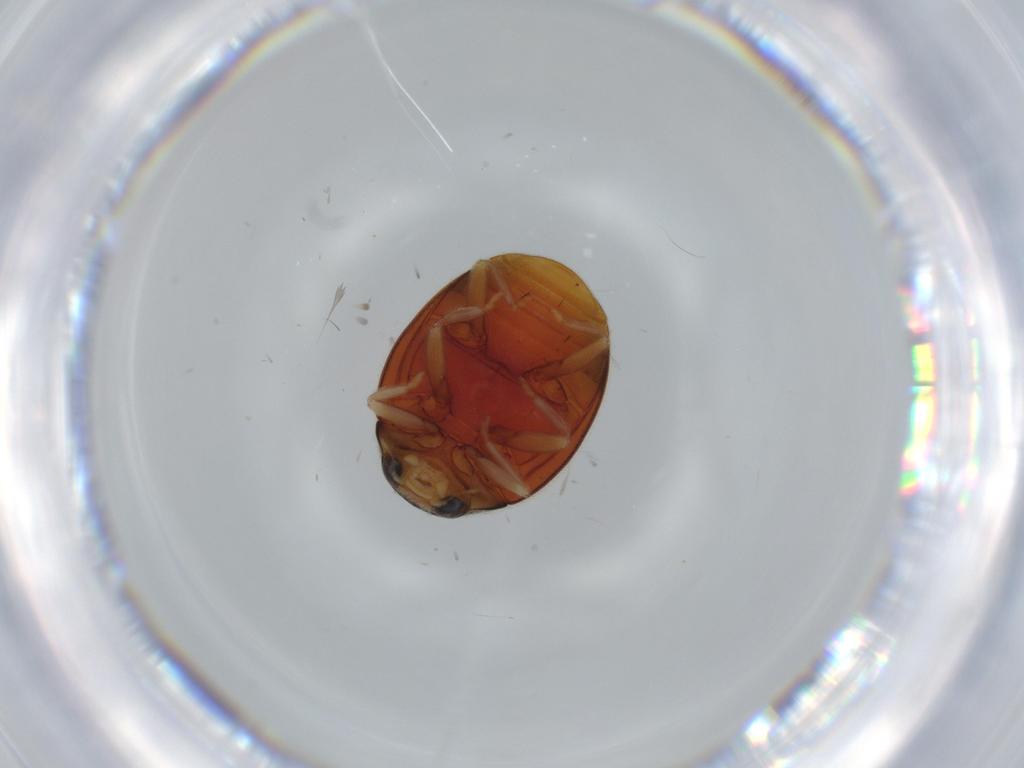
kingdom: Animalia
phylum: Arthropoda
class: Insecta
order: Coleoptera
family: Coccinellidae
